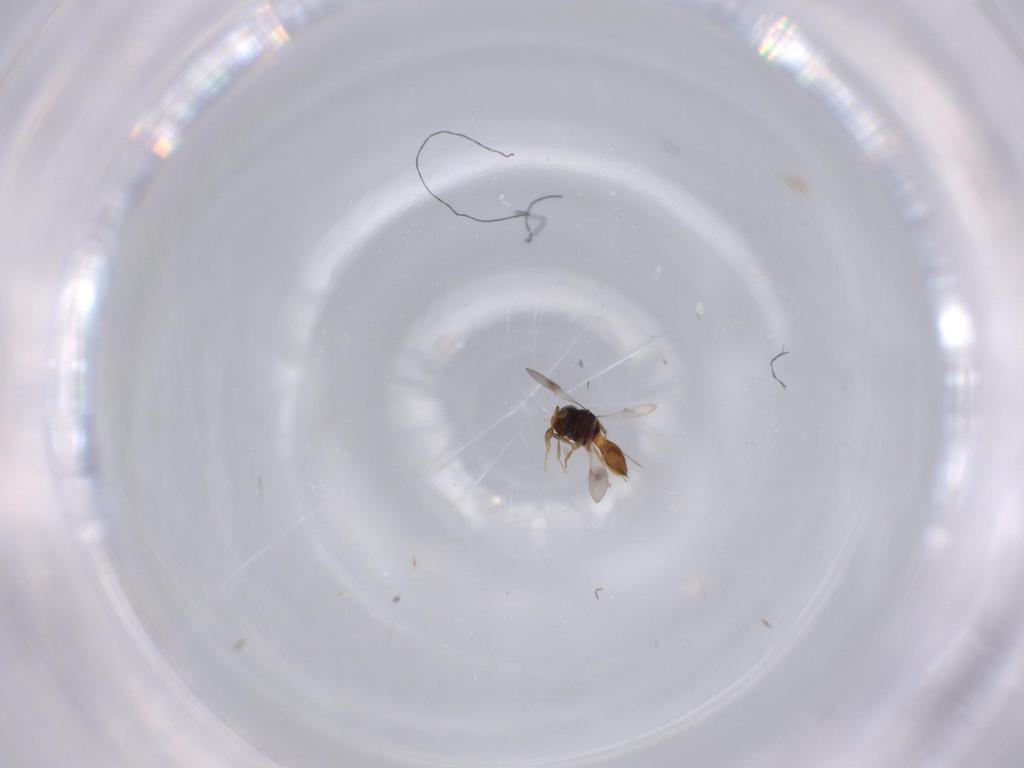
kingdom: Animalia
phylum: Arthropoda
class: Insecta
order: Hymenoptera
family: Scelionidae
